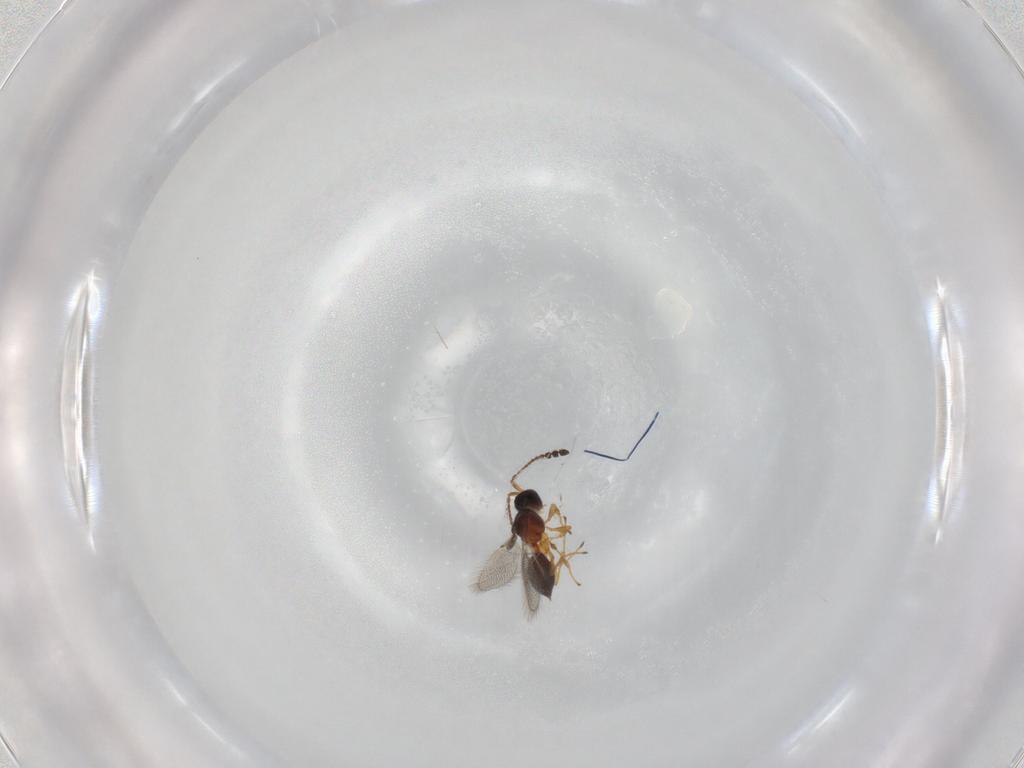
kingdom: Animalia
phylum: Arthropoda
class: Insecta
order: Hymenoptera
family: Diapriidae
